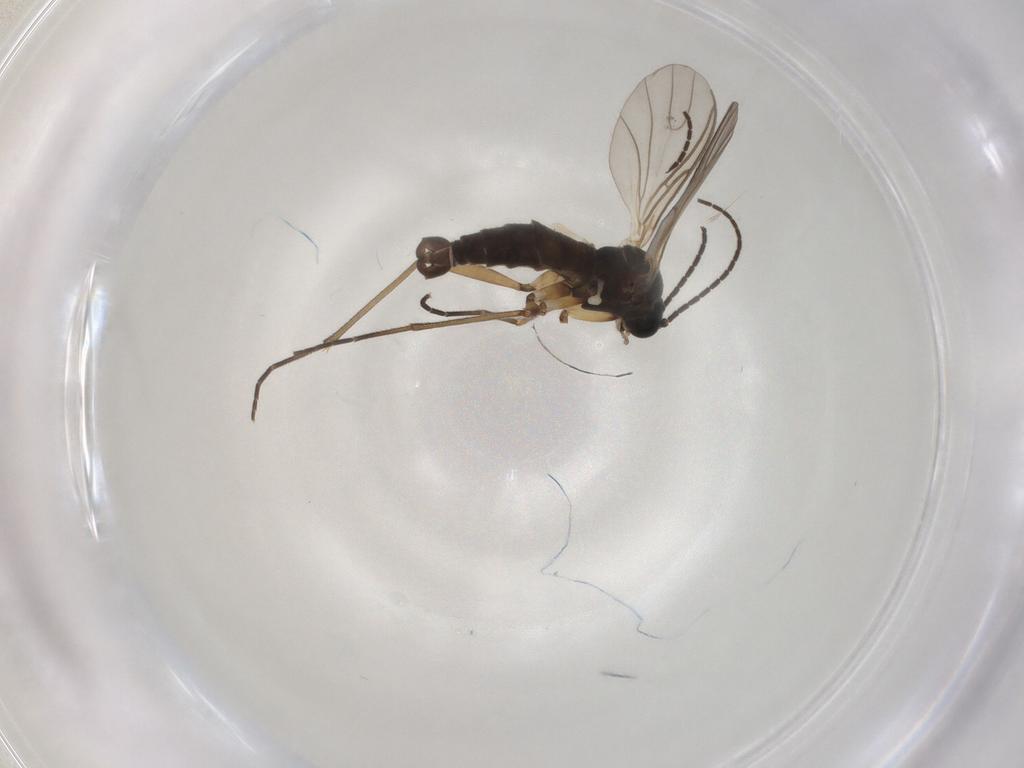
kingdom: Animalia
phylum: Arthropoda
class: Insecta
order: Diptera
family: Sciaridae
